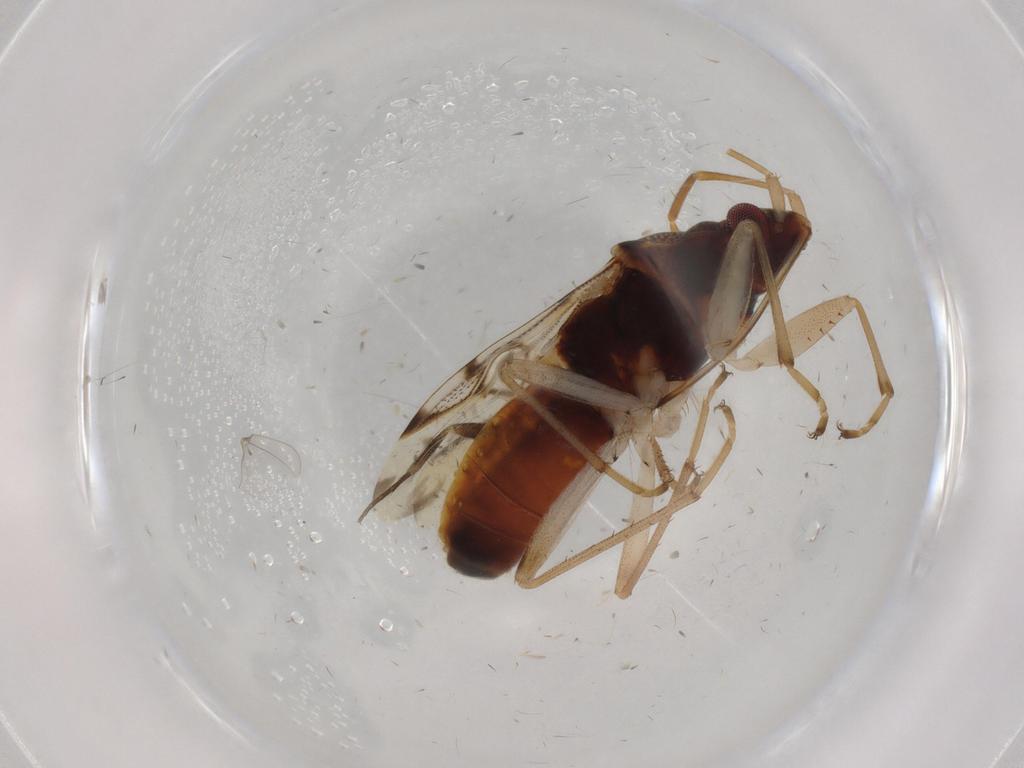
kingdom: Animalia
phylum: Arthropoda
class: Insecta
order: Hemiptera
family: Rhyparochromidae
